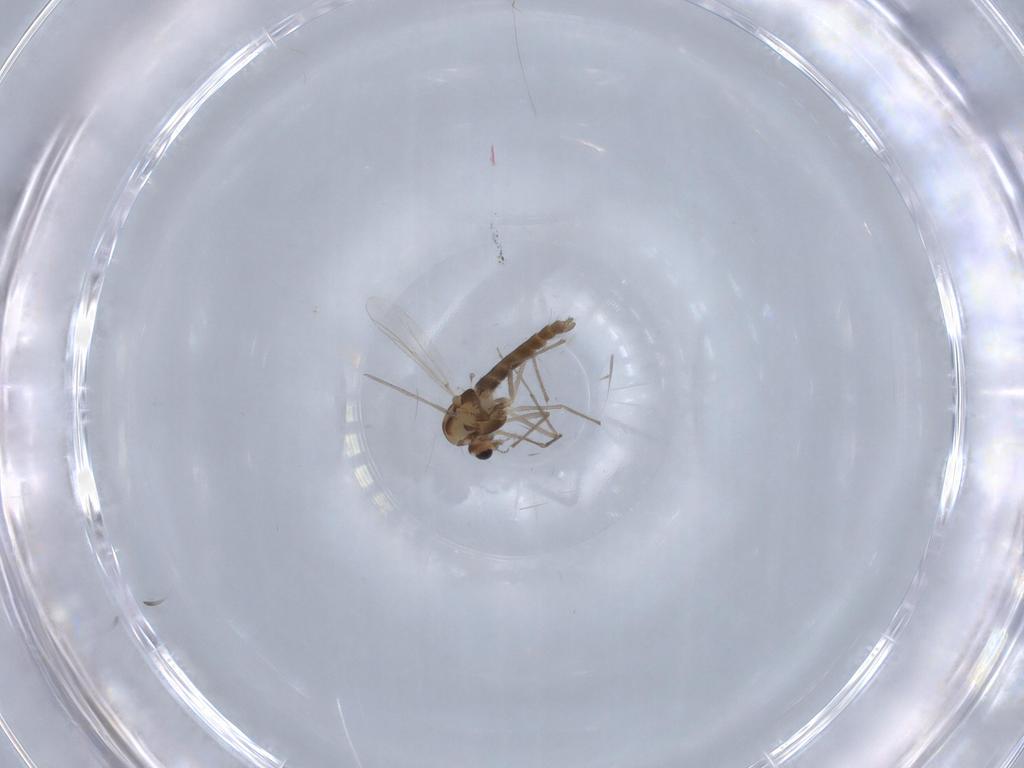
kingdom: Animalia
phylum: Arthropoda
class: Insecta
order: Diptera
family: Chironomidae
